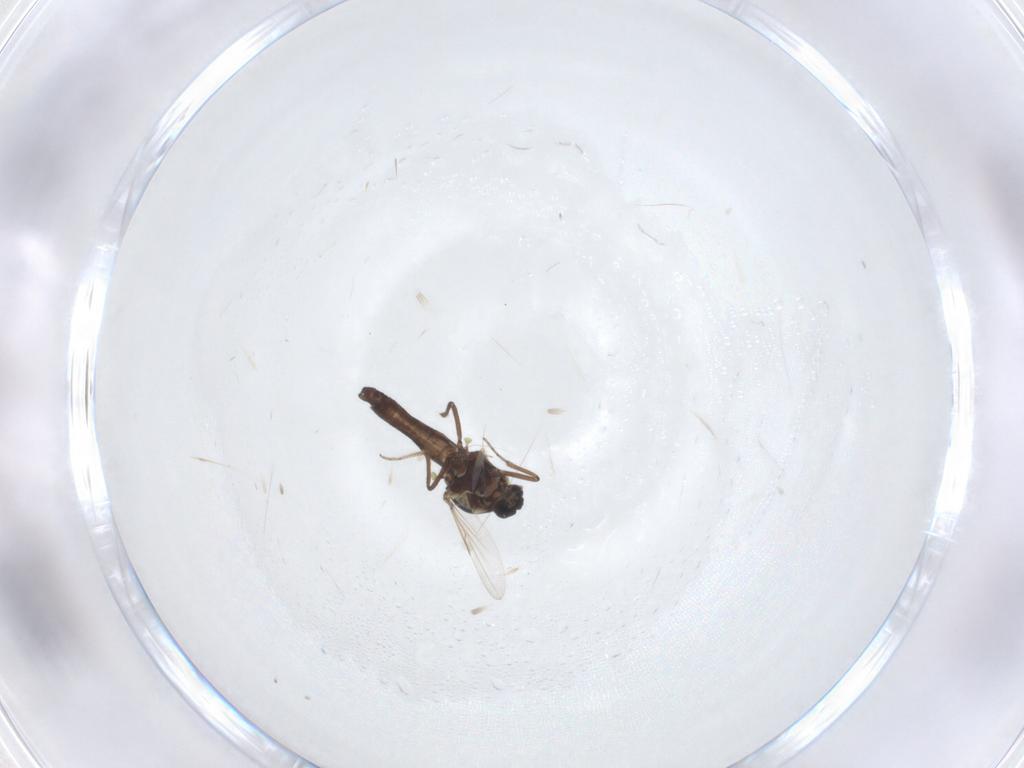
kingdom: Animalia
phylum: Arthropoda
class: Insecta
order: Diptera
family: Ceratopogonidae
